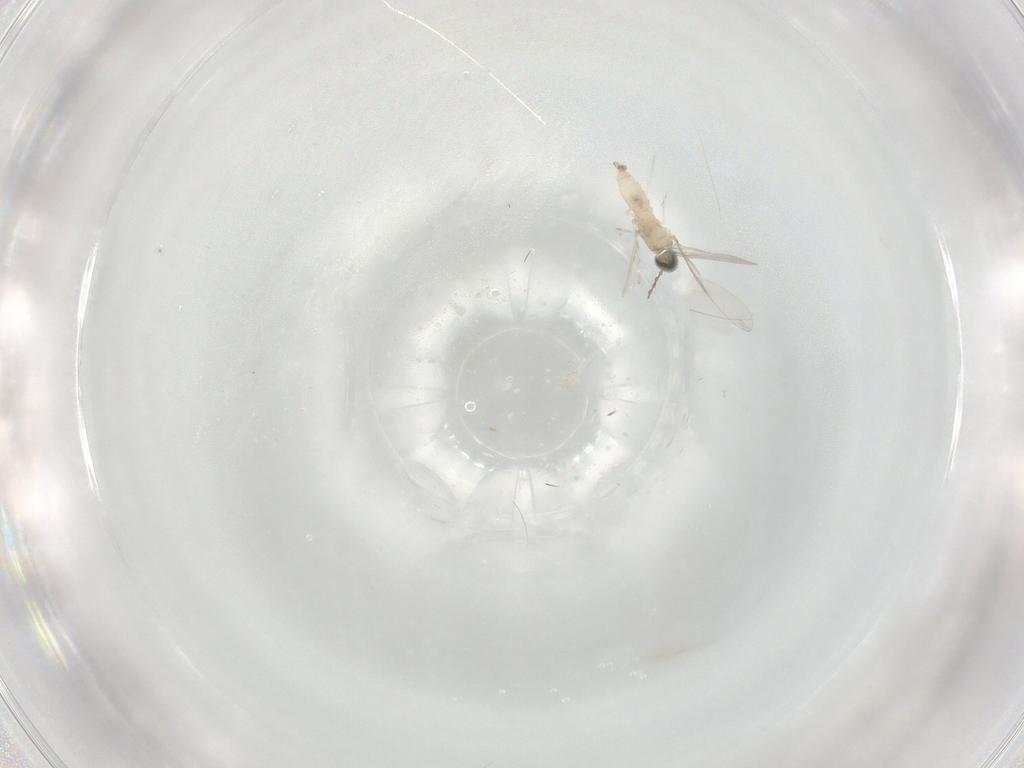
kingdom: Animalia
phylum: Arthropoda
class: Insecta
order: Diptera
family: Cecidomyiidae
